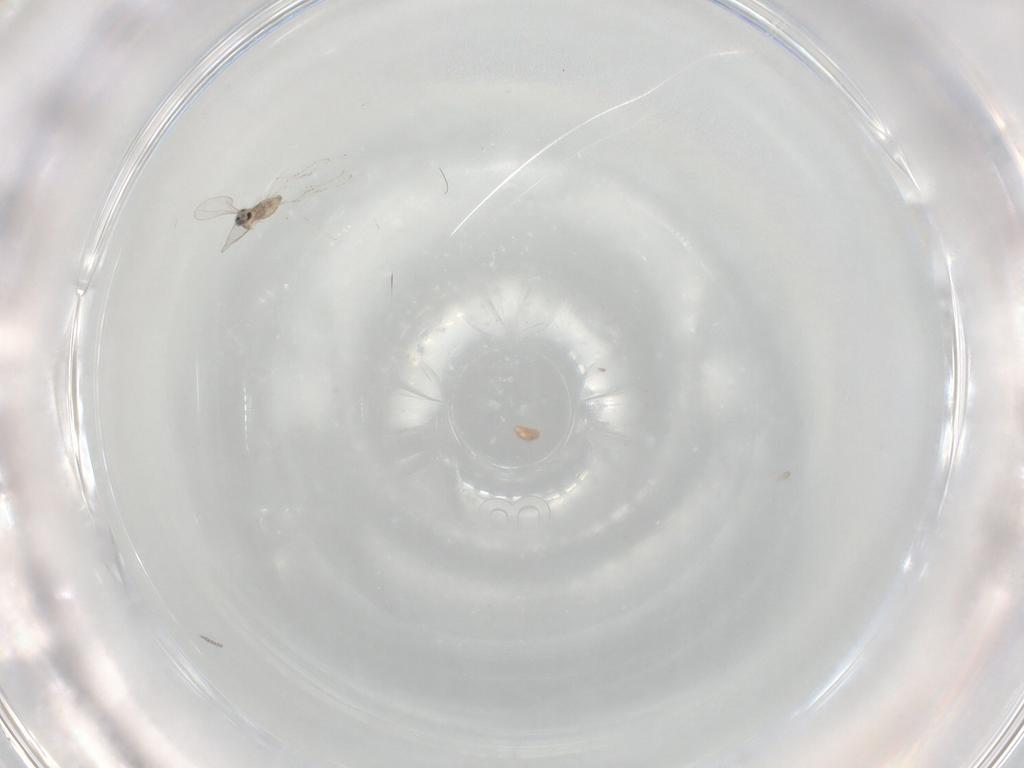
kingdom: Animalia
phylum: Arthropoda
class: Insecta
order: Diptera
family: Cecidomyiidae
